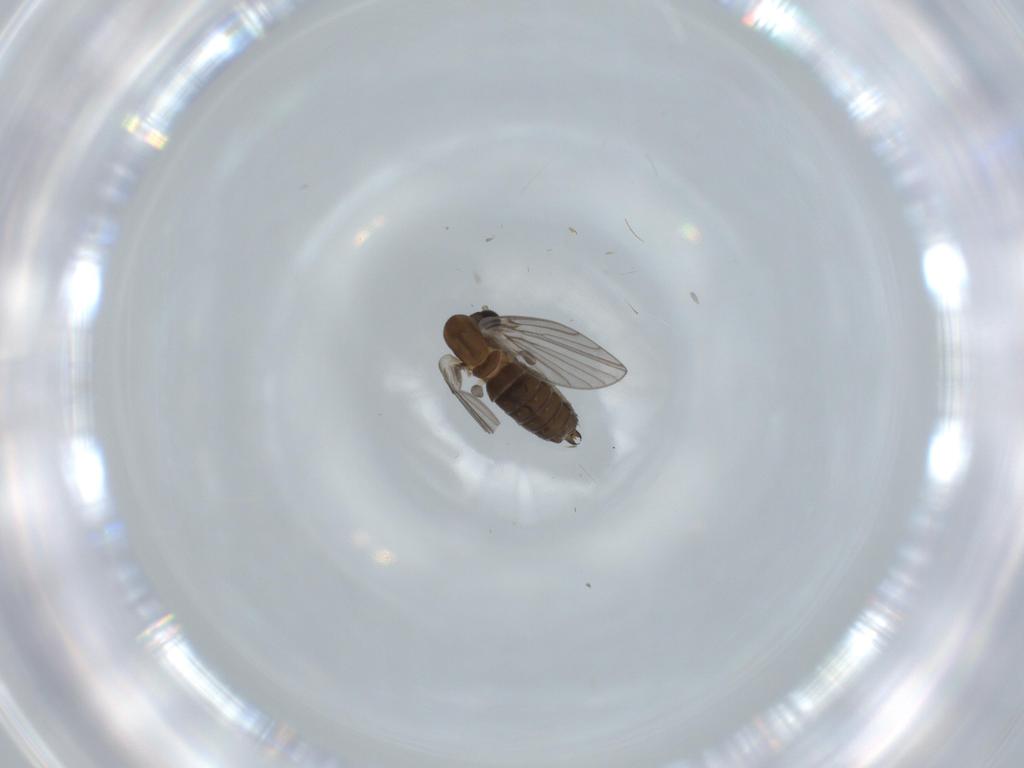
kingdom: Animalia
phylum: Arthropoda
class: Insecta
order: Diptera
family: Psychodidae
